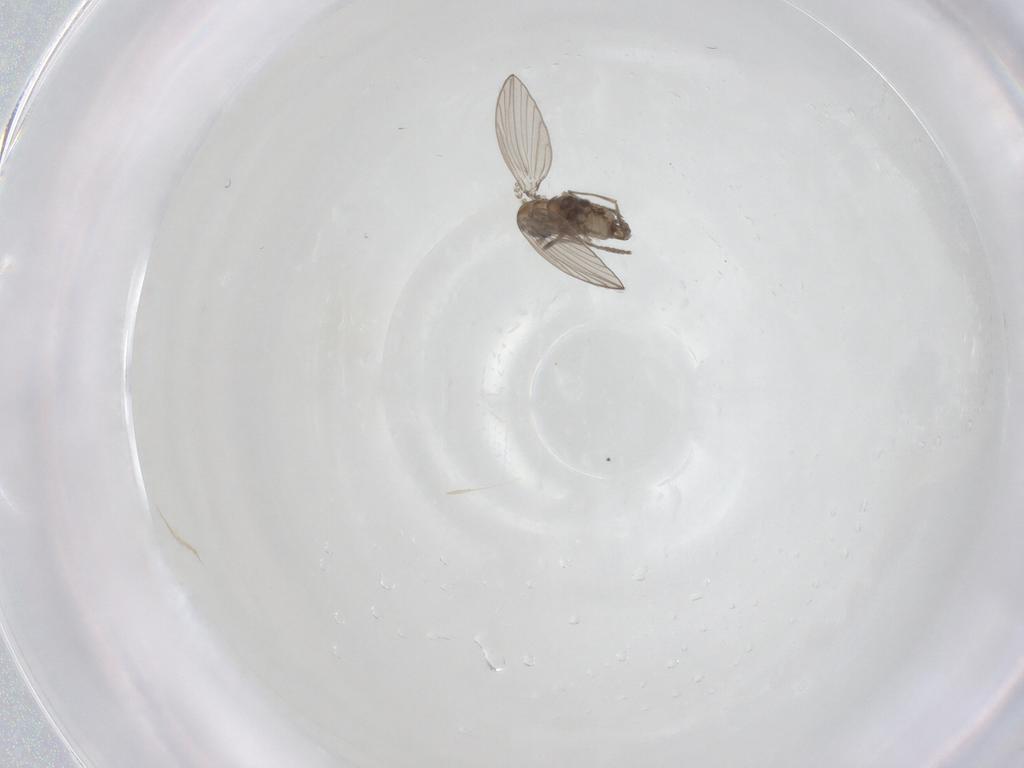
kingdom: Animalia
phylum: Arthropoda
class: Insecta
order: Diptera
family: Psychodidae
